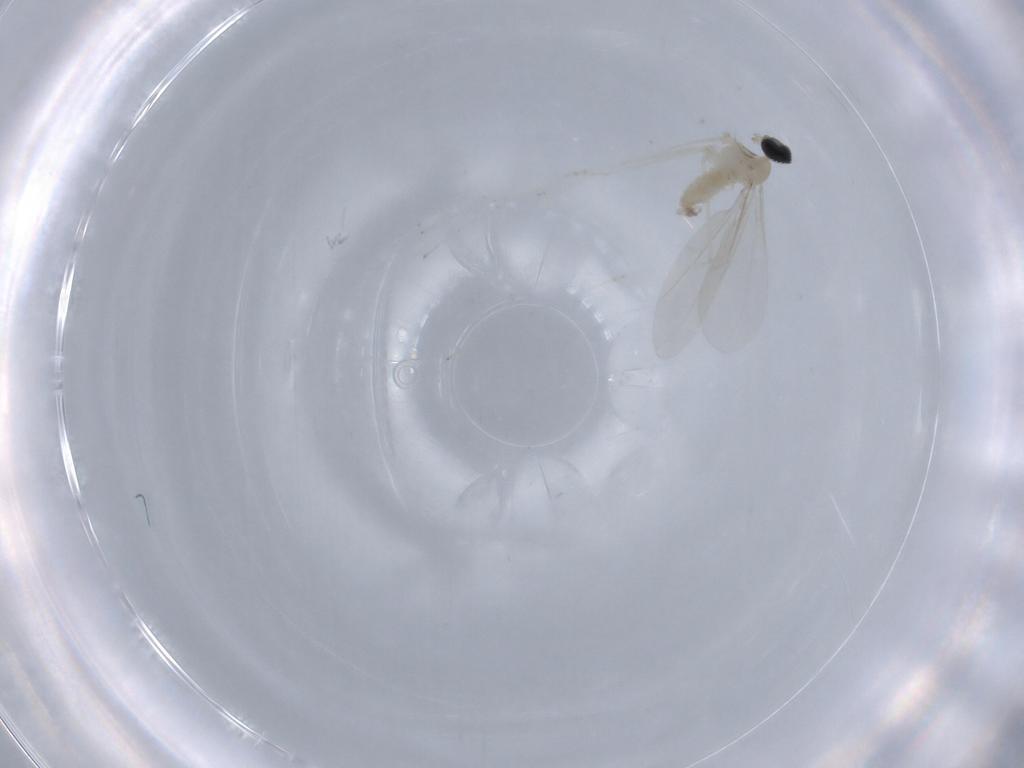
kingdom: Animalia
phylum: Arthropoda
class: Insecta
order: Diptera
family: Cecidomyiidae
